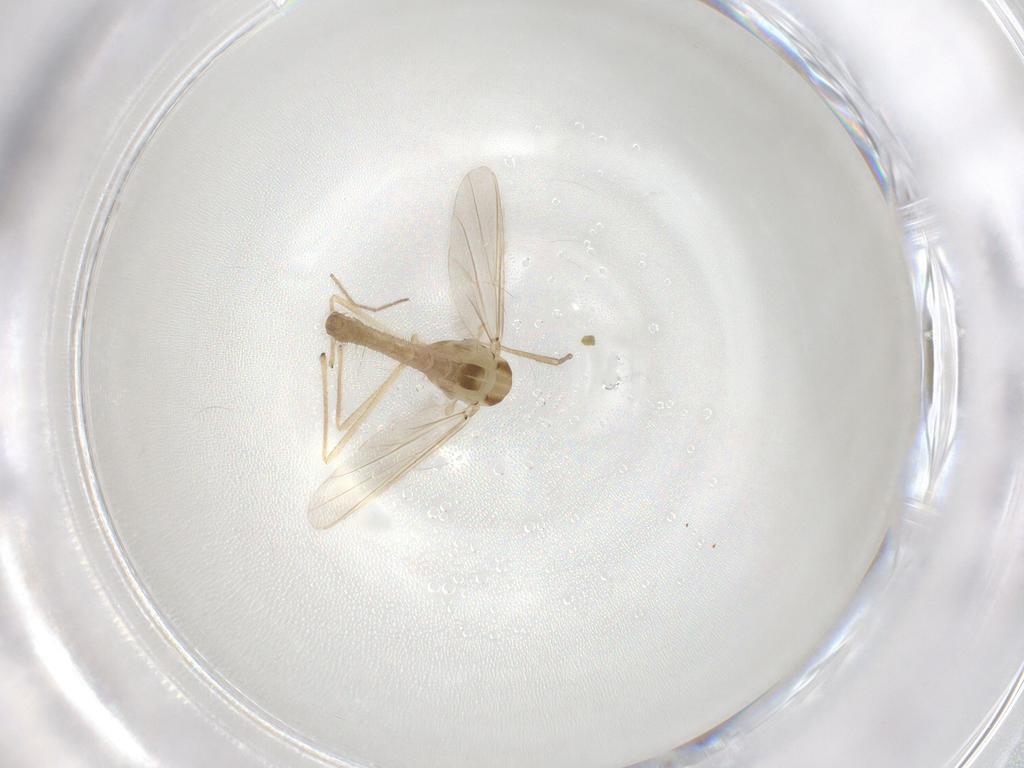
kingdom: Animalia
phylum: Arthropoda
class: Insecta
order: Diptera
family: Chironomidae
